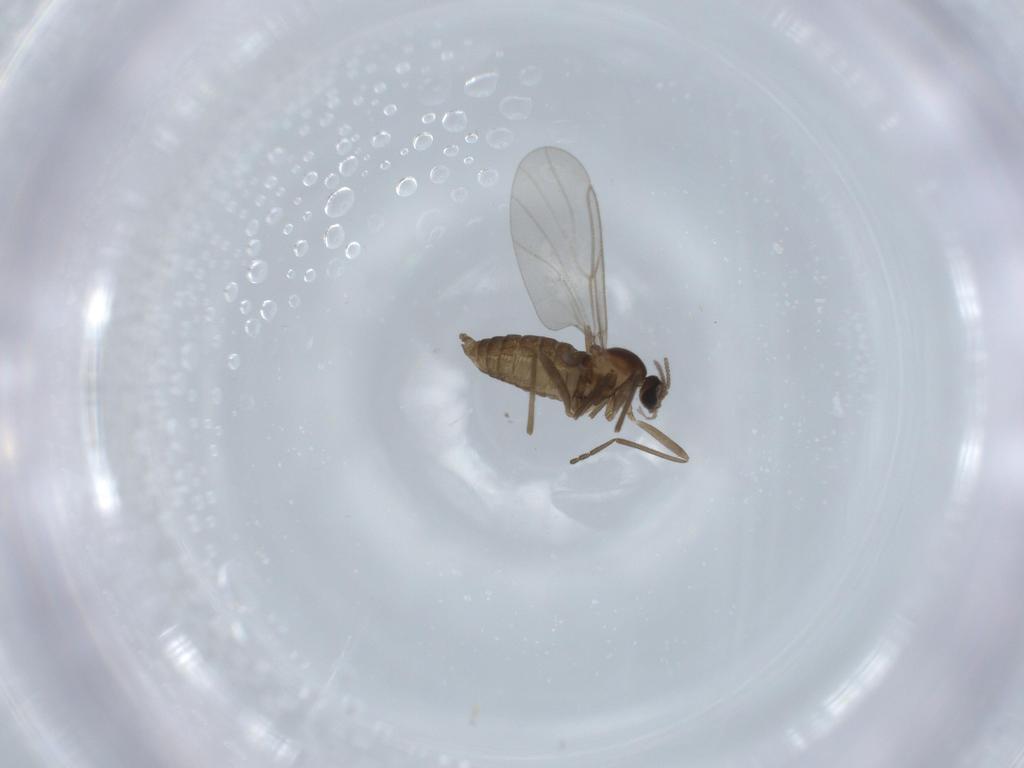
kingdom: Animalia
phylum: Arthropoda
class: Insecta
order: Diptera
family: Cecidomyiidae
